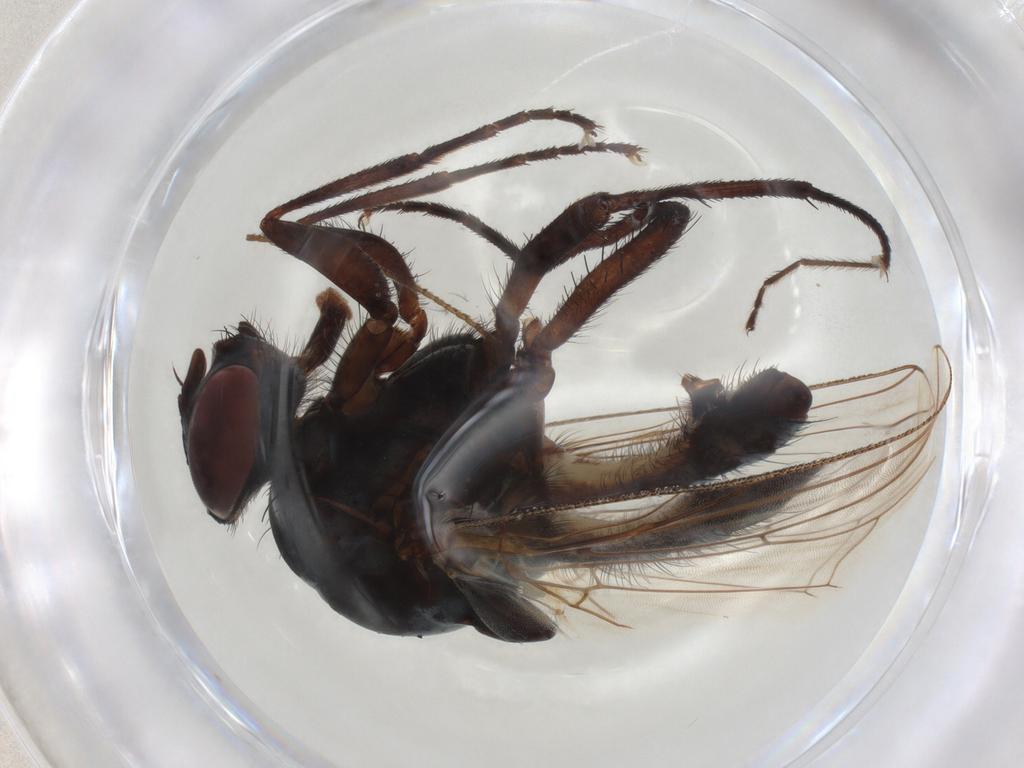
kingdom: Animalia
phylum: Arthropoda
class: Insecta
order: Diptera
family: Anthomyiidae
